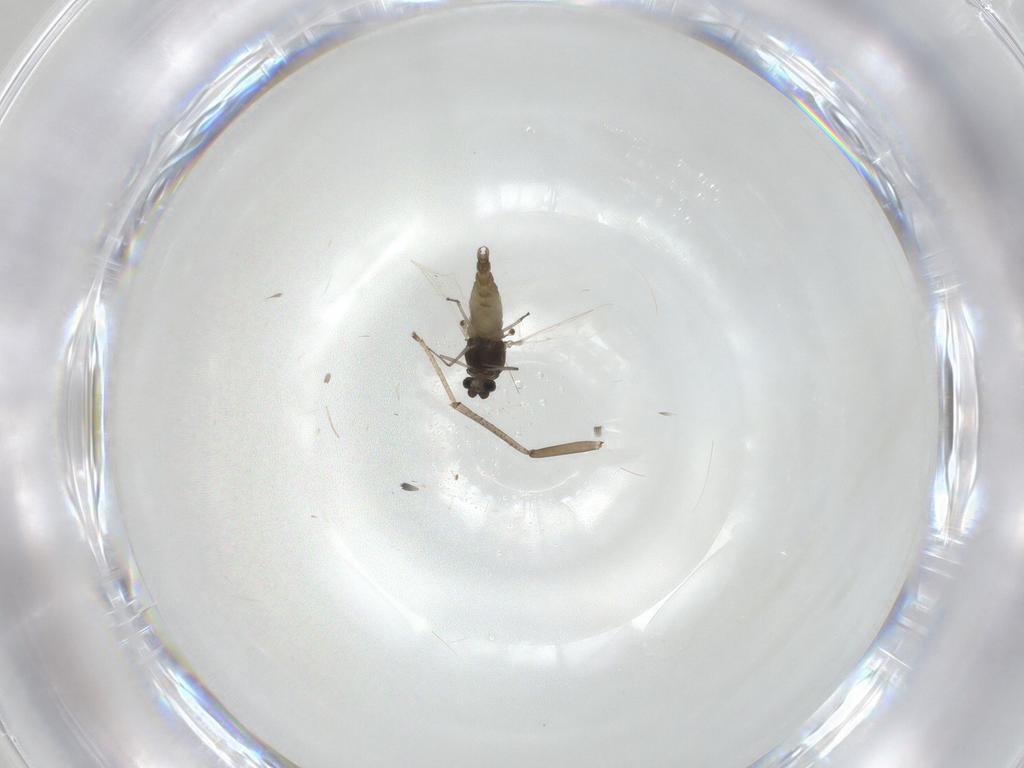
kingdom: Animalia
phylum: Arthropoda
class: Insecta
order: Diptera
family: Chironomidae
